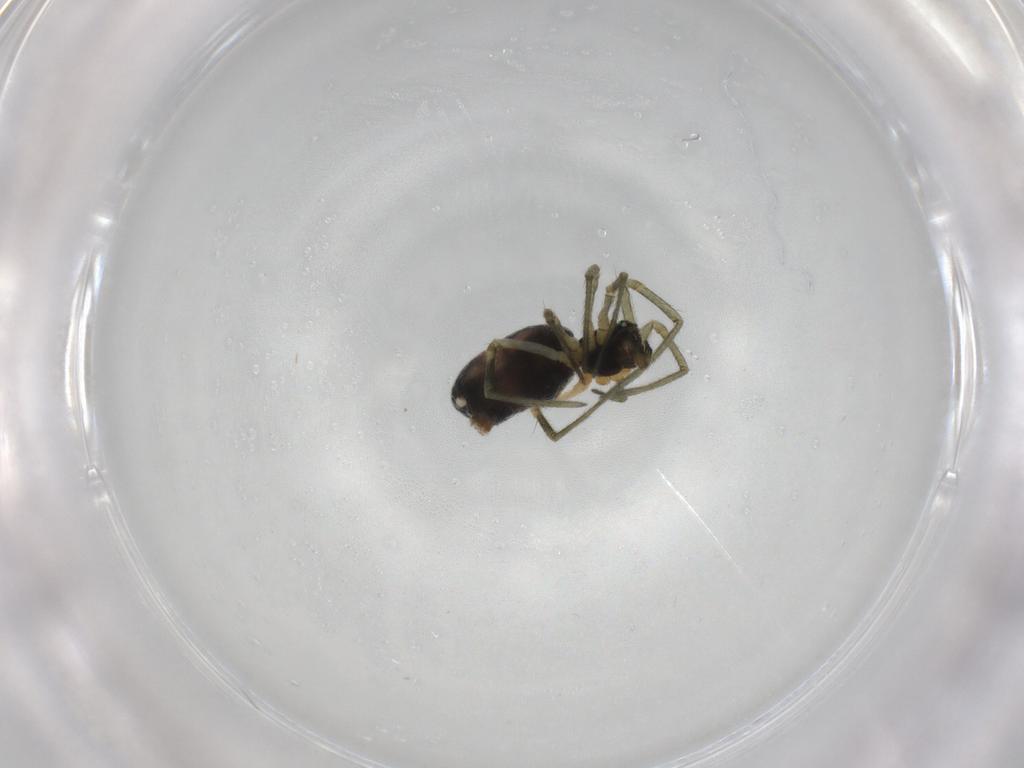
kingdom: Animalia
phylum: Arthropoda
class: Arachnida
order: Araneae
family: Linyphiidae
